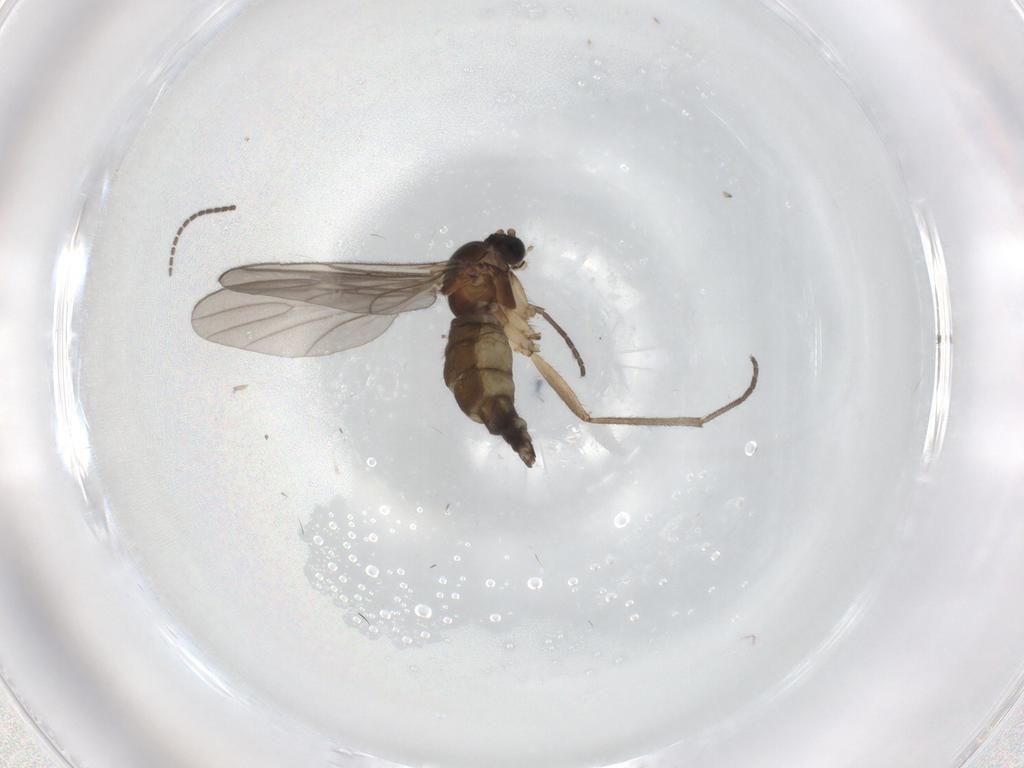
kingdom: Animalia
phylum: Arthropoda
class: Insecta
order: Diptera
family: Sciaridae
